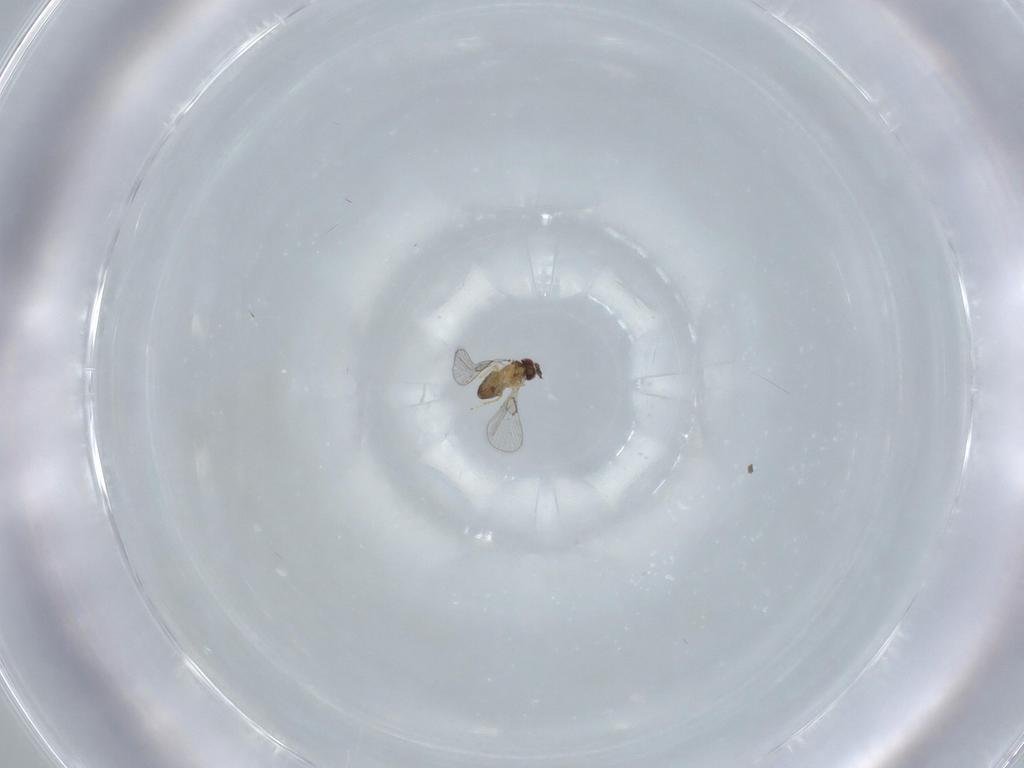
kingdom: Animalia
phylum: Arthropoda
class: Insecta
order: Hymenoptera
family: Trichogrammatidae
